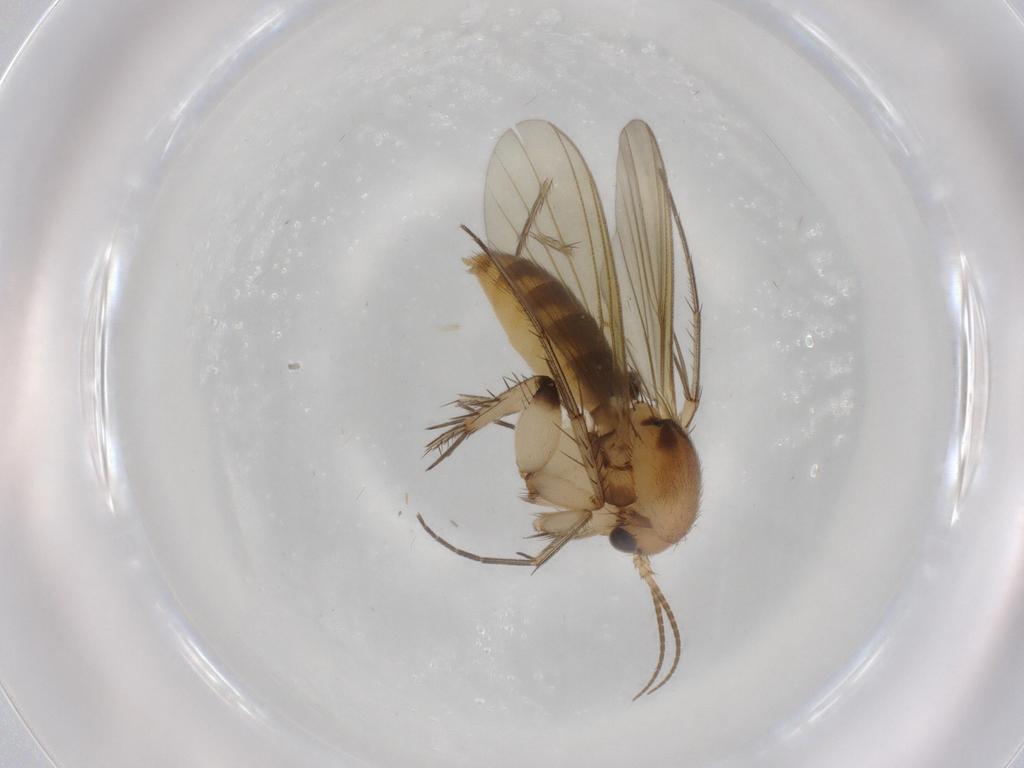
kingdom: Animalia
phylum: Arthropoda
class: Insecta
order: Diptera
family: Mycetophilidae
